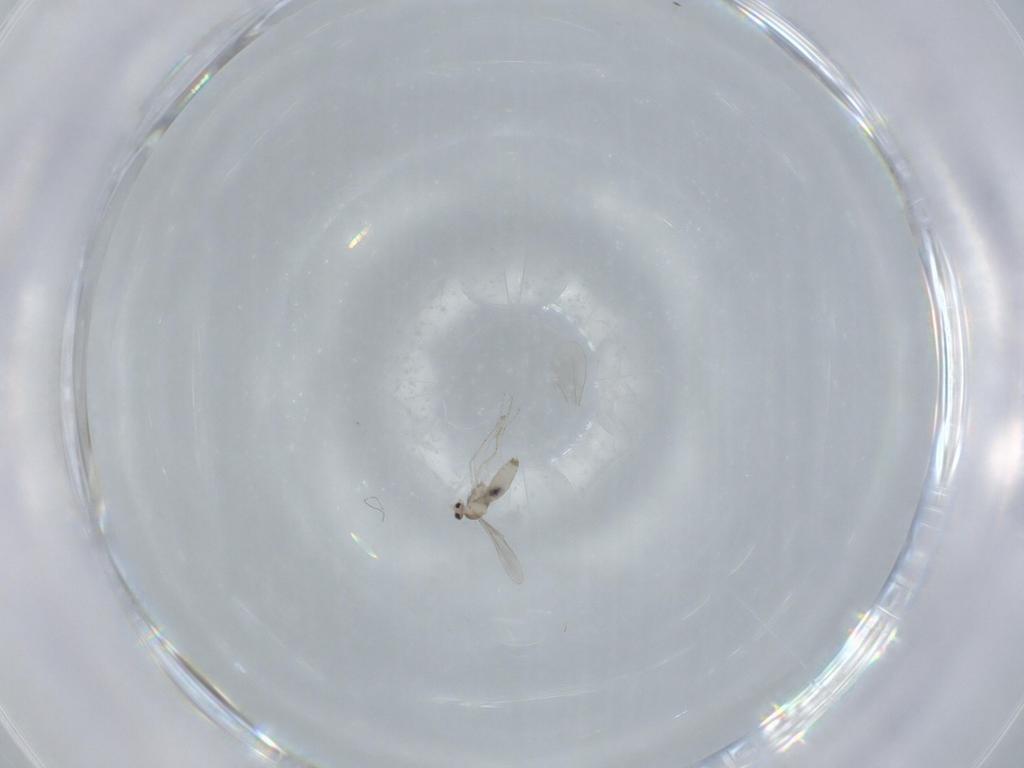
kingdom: Animalia
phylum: Arthropoda
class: Insecta
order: Diptera
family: Cecidomyiidae
